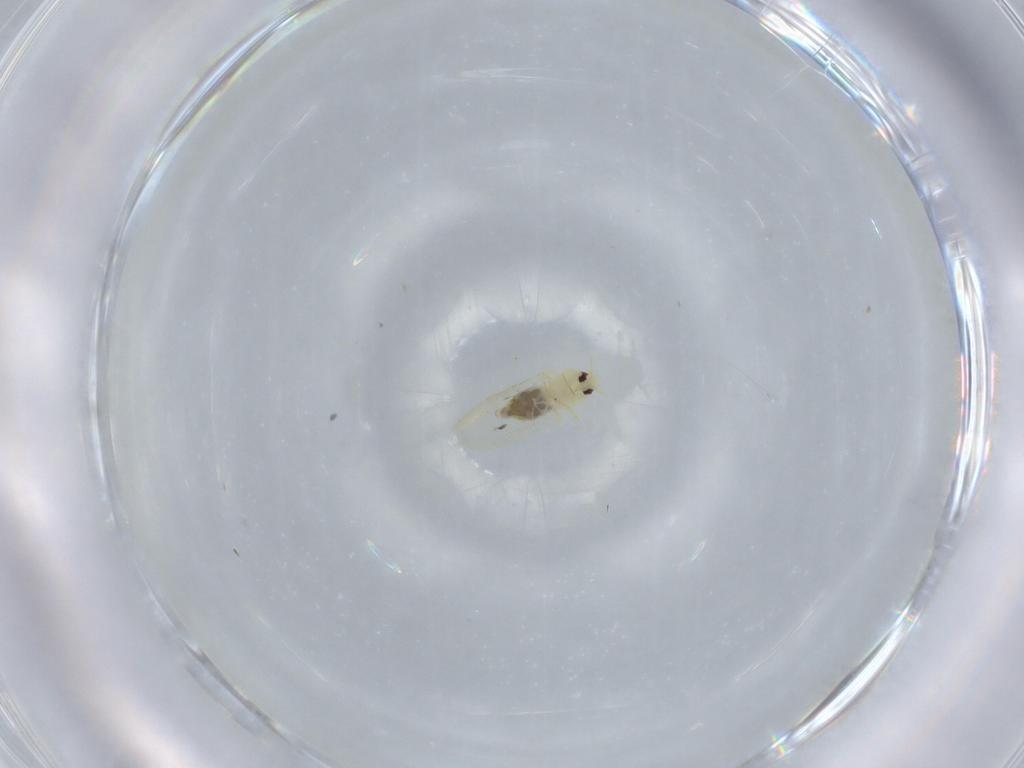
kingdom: Animalia
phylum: Arthropoda
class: Insecta
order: Hemiptera
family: Aleyrodidae
